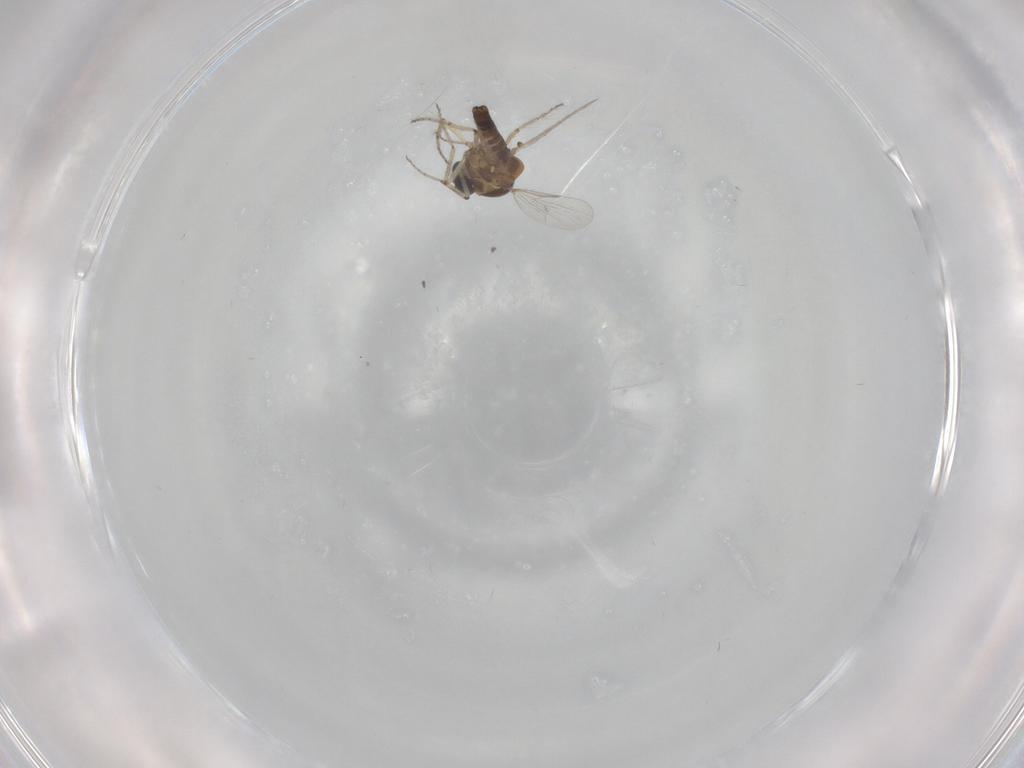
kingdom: Animalia
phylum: Arthropoda
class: Insecta
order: Diptera
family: Ceratopogonidae
